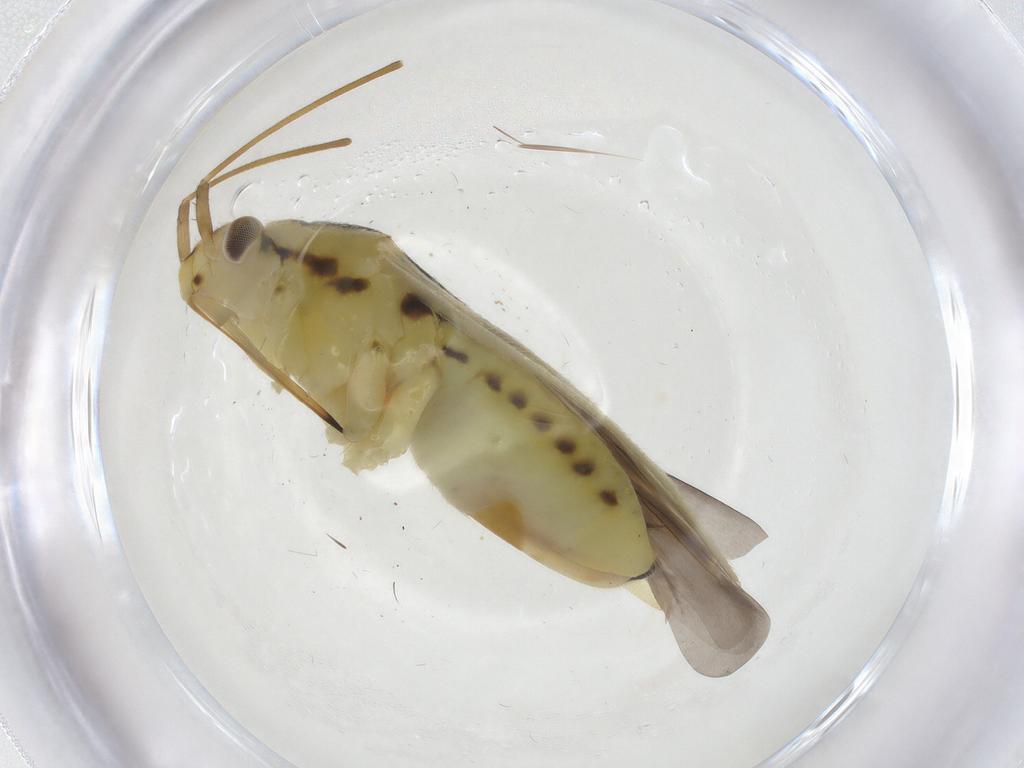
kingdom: Animalia
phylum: Arthropoda
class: Insecta
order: Hemiptera
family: Miridae
